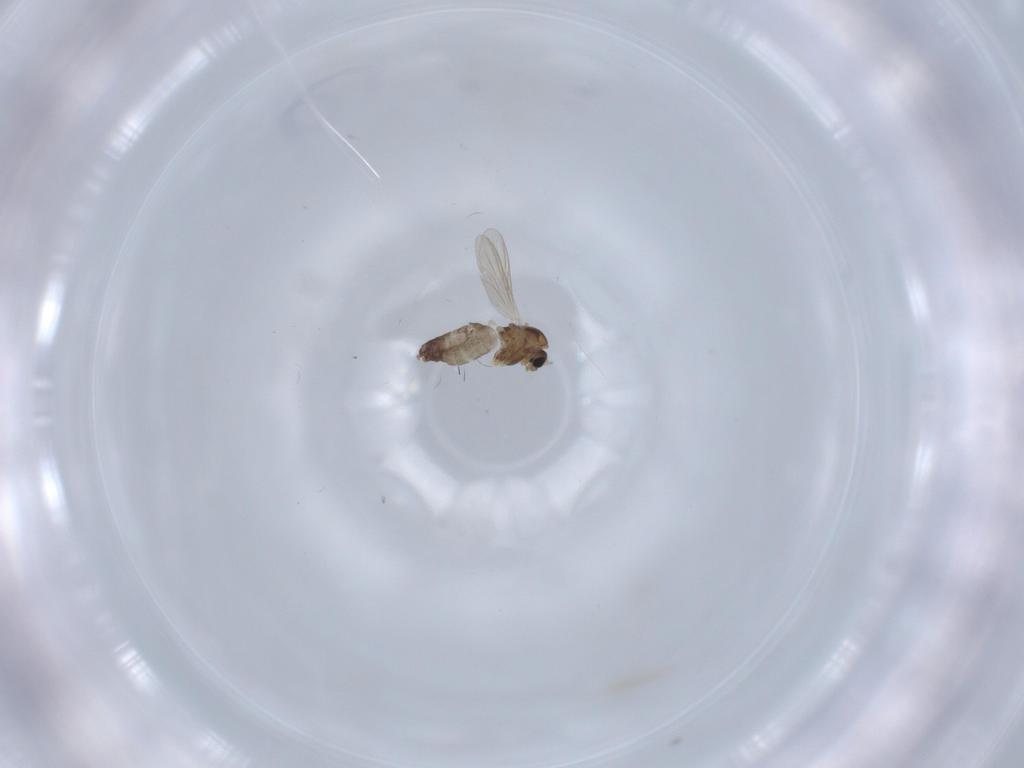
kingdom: Animalia
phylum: Arthropoda
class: Insecta
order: Diptera
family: Chironomidae
